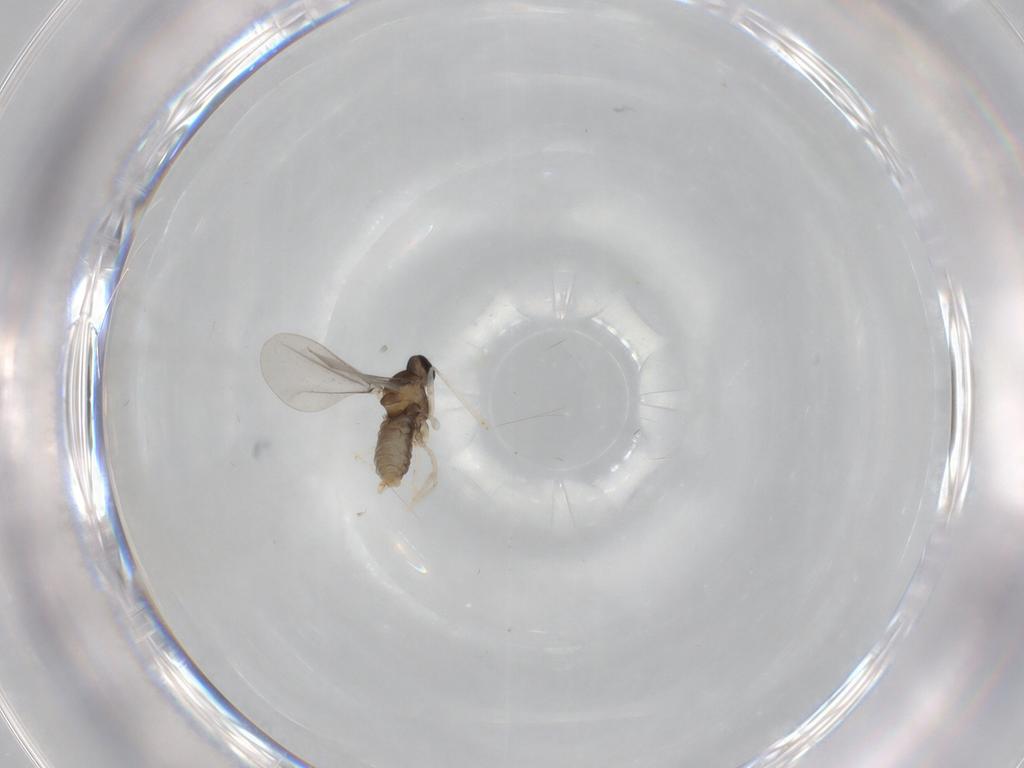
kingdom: Animalia
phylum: Arthropoda
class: Insecta
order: Diptera
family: Cecidomyiidae
